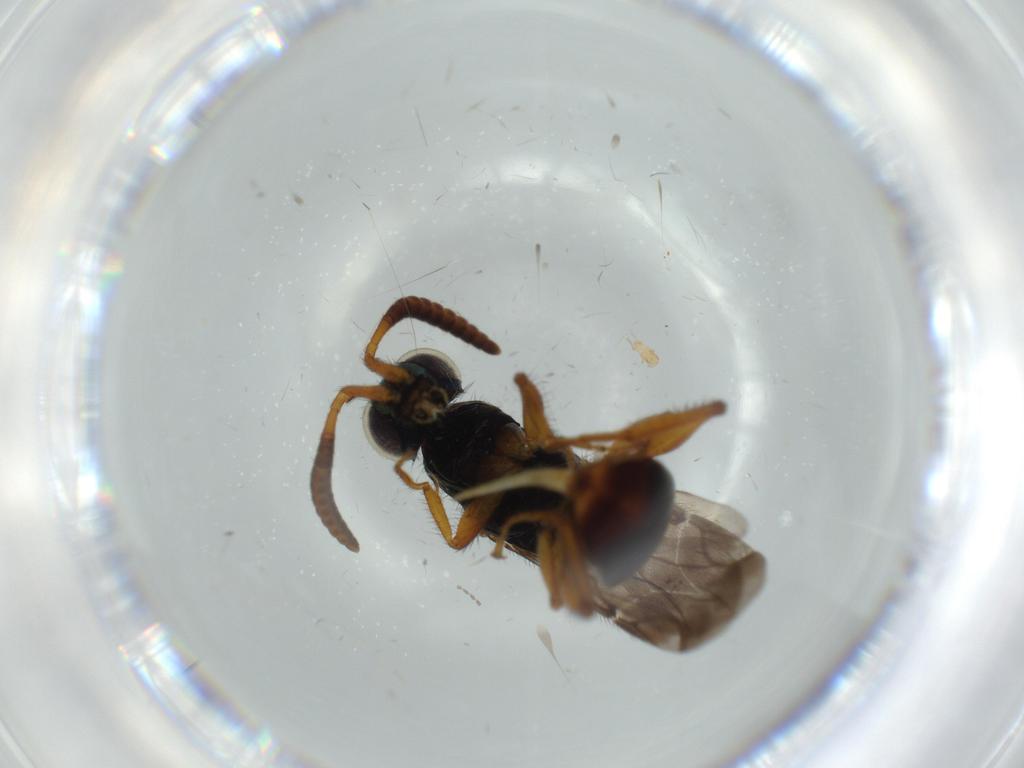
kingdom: Animalia
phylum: Arthropoda
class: Insecta
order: Hymenoptera
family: Chrysididae
